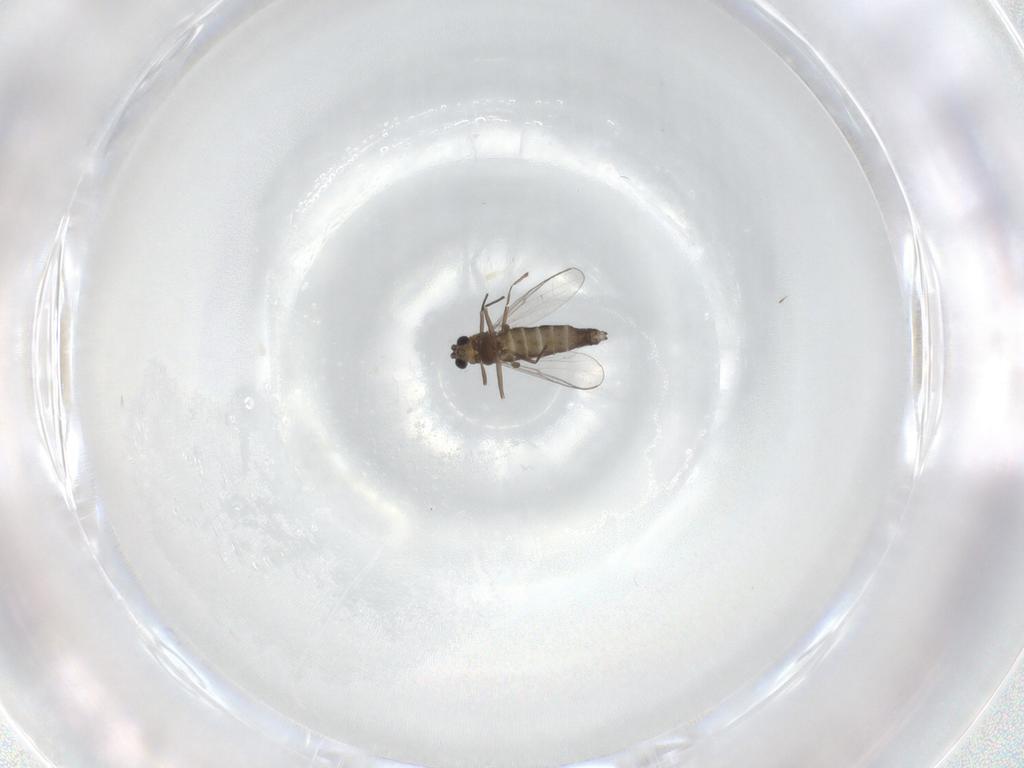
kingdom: Animalia
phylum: Arthropoda
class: Insecta
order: Diptera
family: Chironomidae
